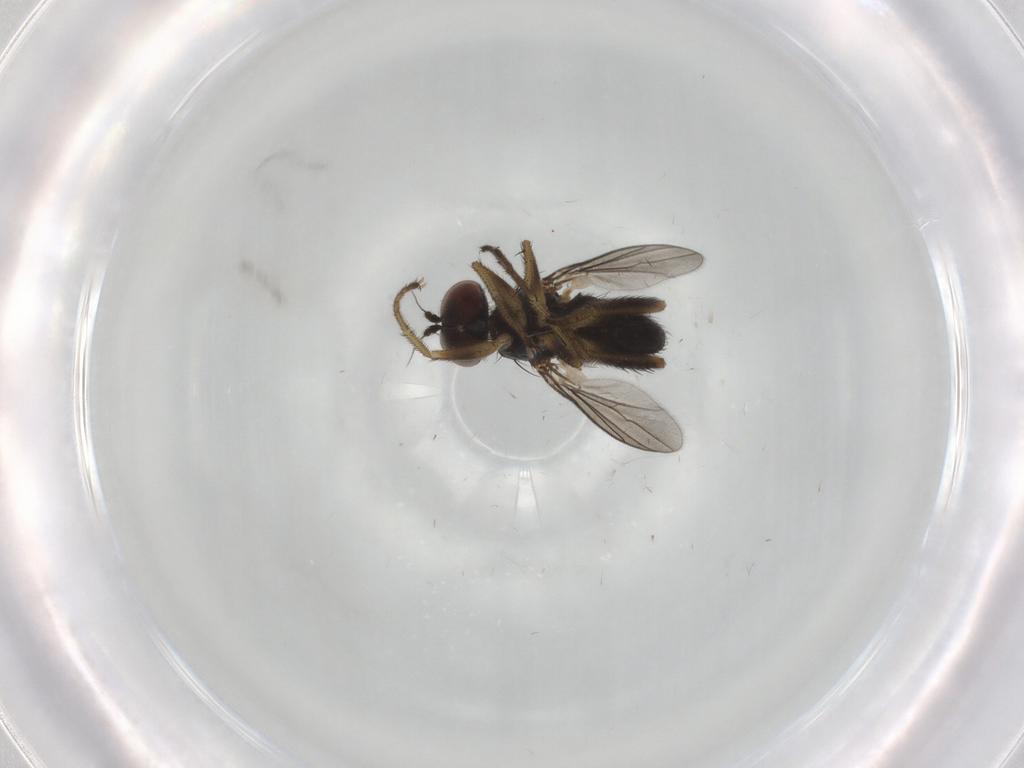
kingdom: Animalia
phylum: Arthropoda
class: Insecta
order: Diptera
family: Dolichopodidae
